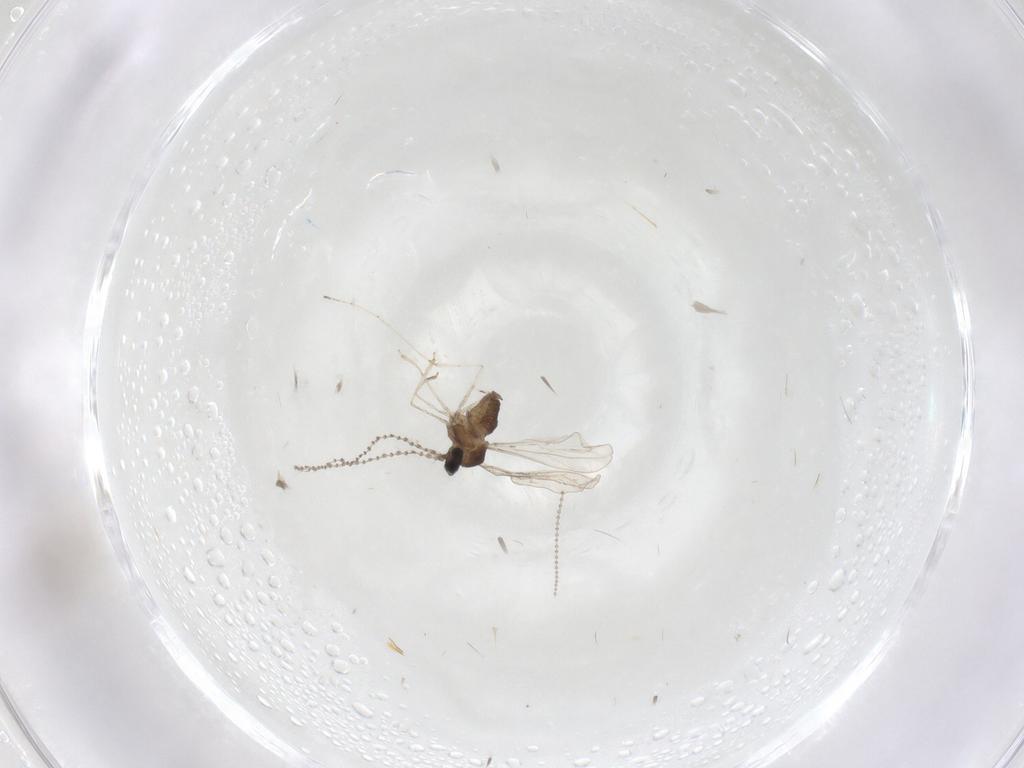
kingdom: Animalia
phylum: Arthropoda
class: Insecta
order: Diptera
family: Cecidomyiidae
